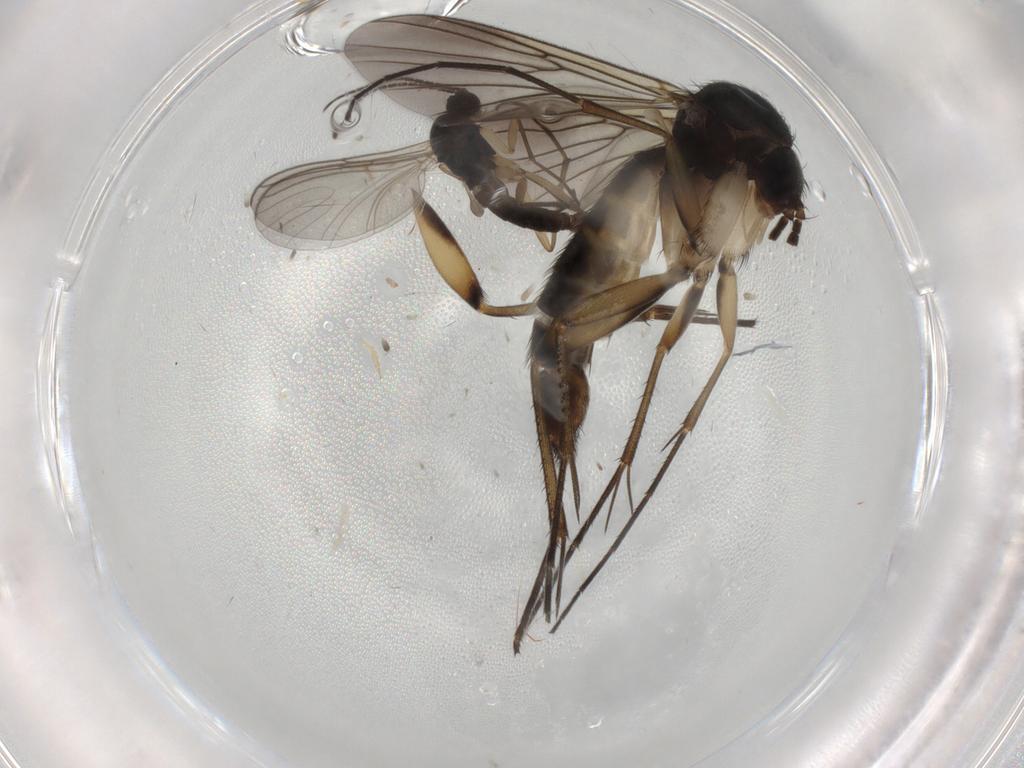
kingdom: Animalia
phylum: Arthropoda
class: Insecta
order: Diptera
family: Sciaridae
